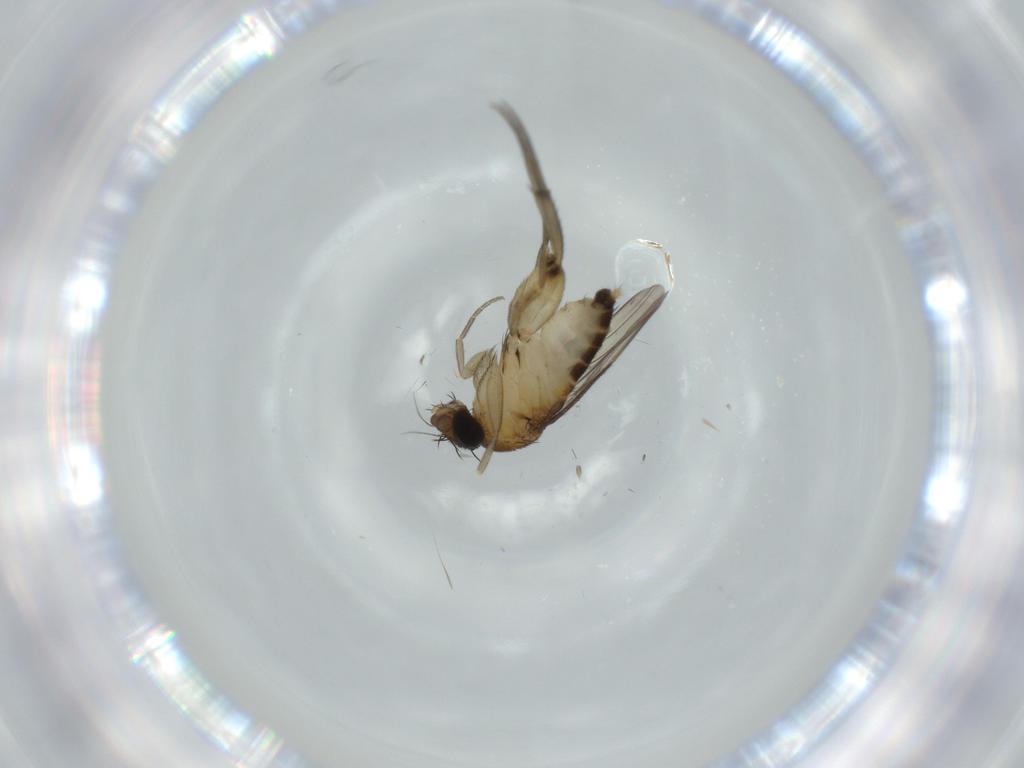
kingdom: Animalia
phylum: Arthropoda
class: Insecta
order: Diptera
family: Phoridae
